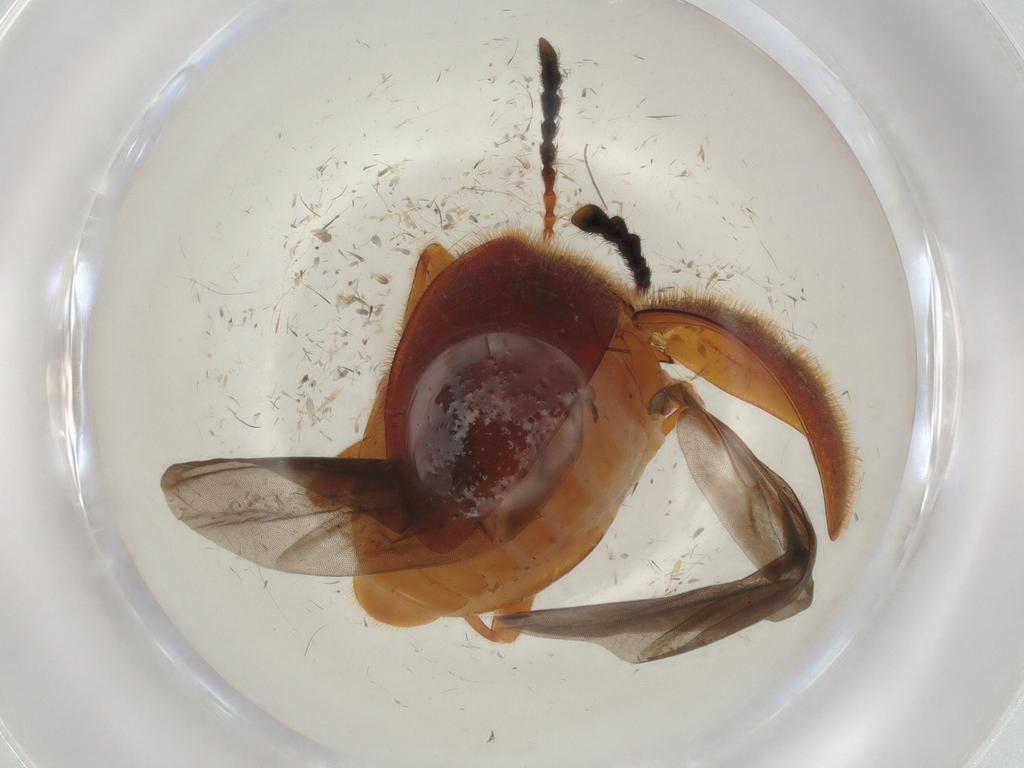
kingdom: Animalia
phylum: Arthropoda
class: Insecta
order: Coleoptera
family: Endomychidae
